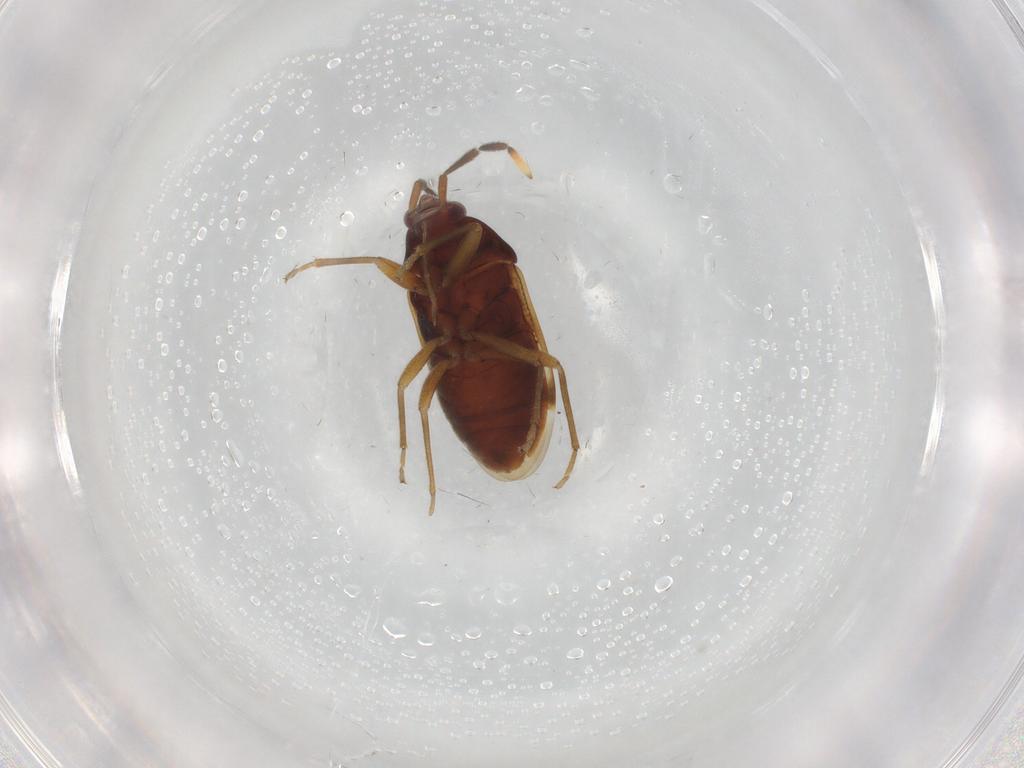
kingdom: Animalia
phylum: Arthropoda
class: Insecta
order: Hemiptera
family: Rhyparochromidae
